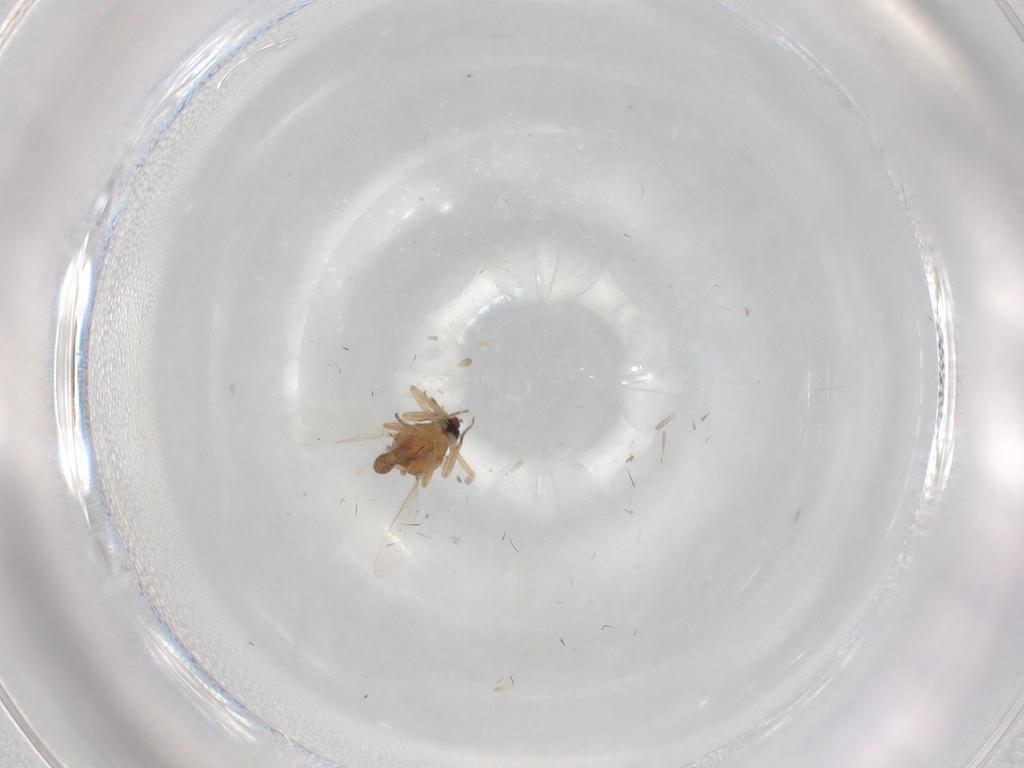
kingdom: Animalia
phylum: Arthropoda
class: Insecta
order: Diptera
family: Ceratopogonidae
